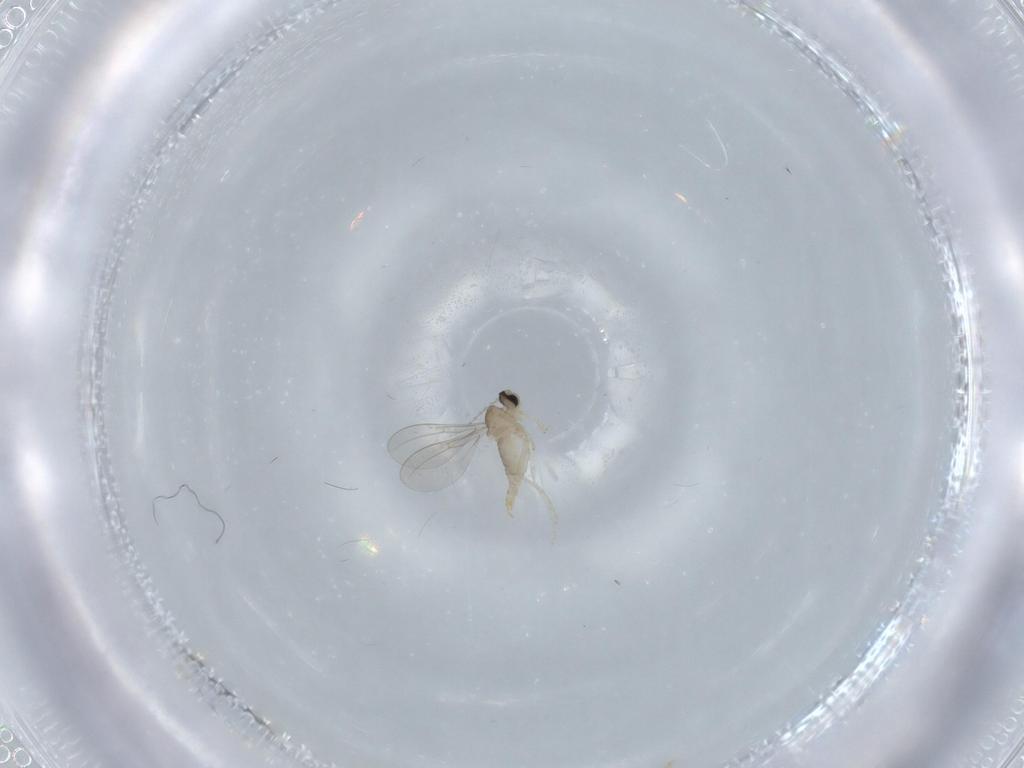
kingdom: Animalia
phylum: Arthropoda
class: Insecta
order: Diptera
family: Cecidomyiidae
